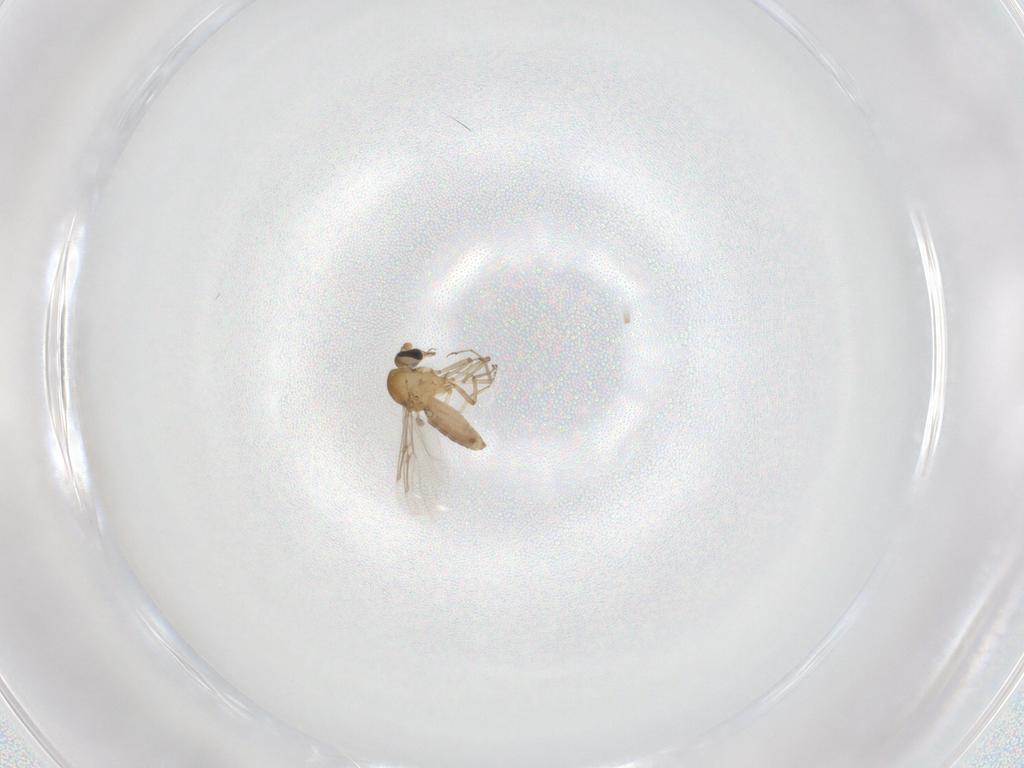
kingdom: Animalia
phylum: Arthropoda
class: Insecta
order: Diptera
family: Ceratopogonidae
